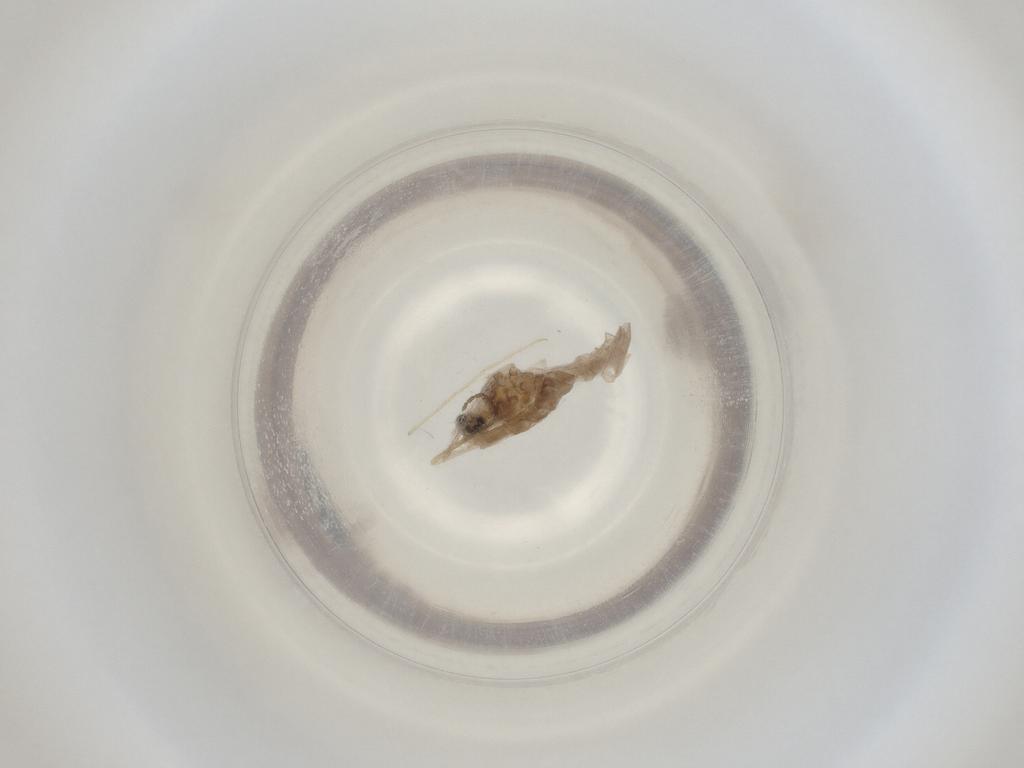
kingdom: Animalia
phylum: Arthropoda
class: Insecta
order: Diptera
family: Cecidomyiidae
